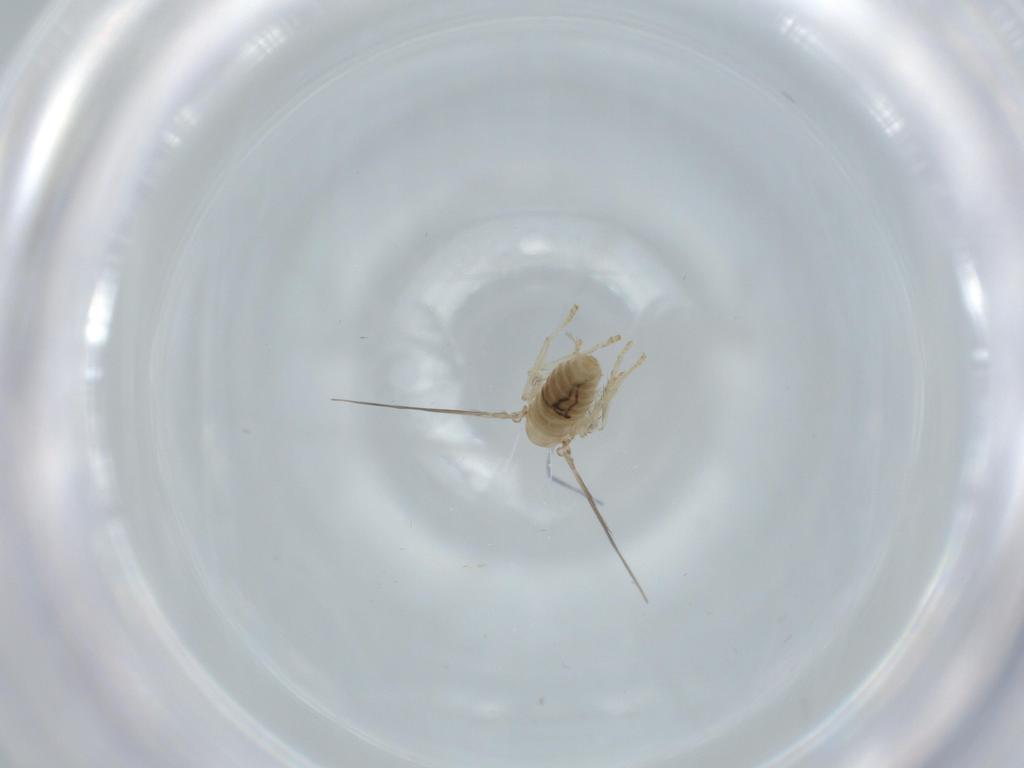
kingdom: Animalia
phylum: Arthropoda
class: Insecta
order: Diptera
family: Psychodidae
